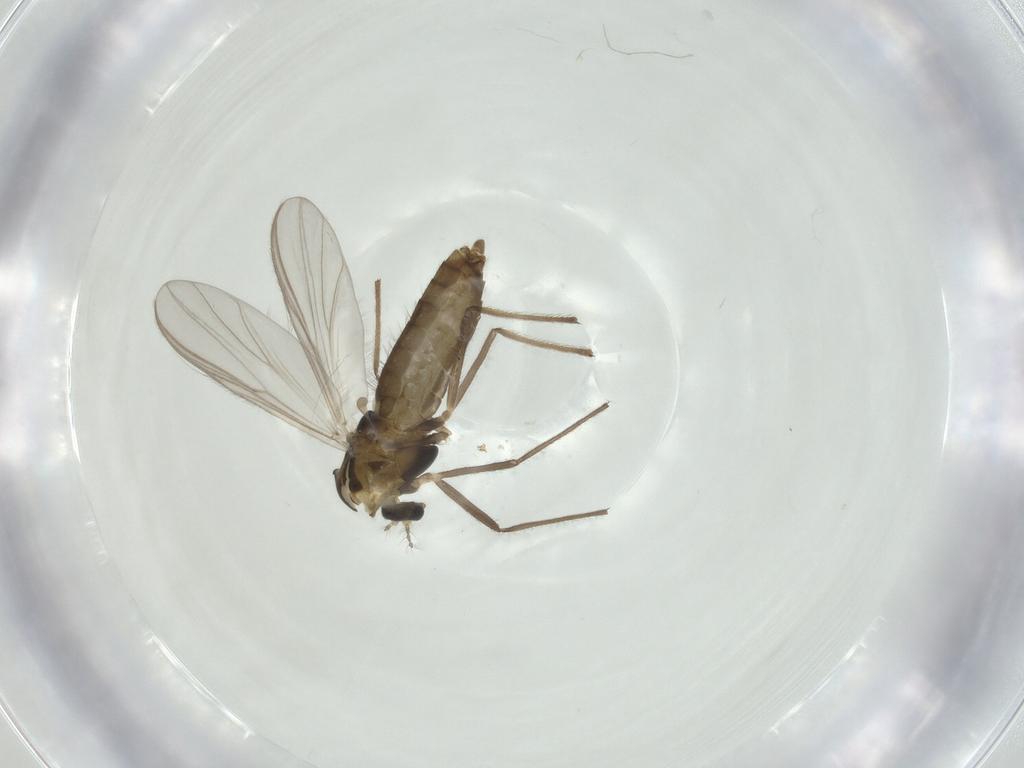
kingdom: Animalia
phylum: Arthropoda
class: Insecta
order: Diptera
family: Chironomidae
